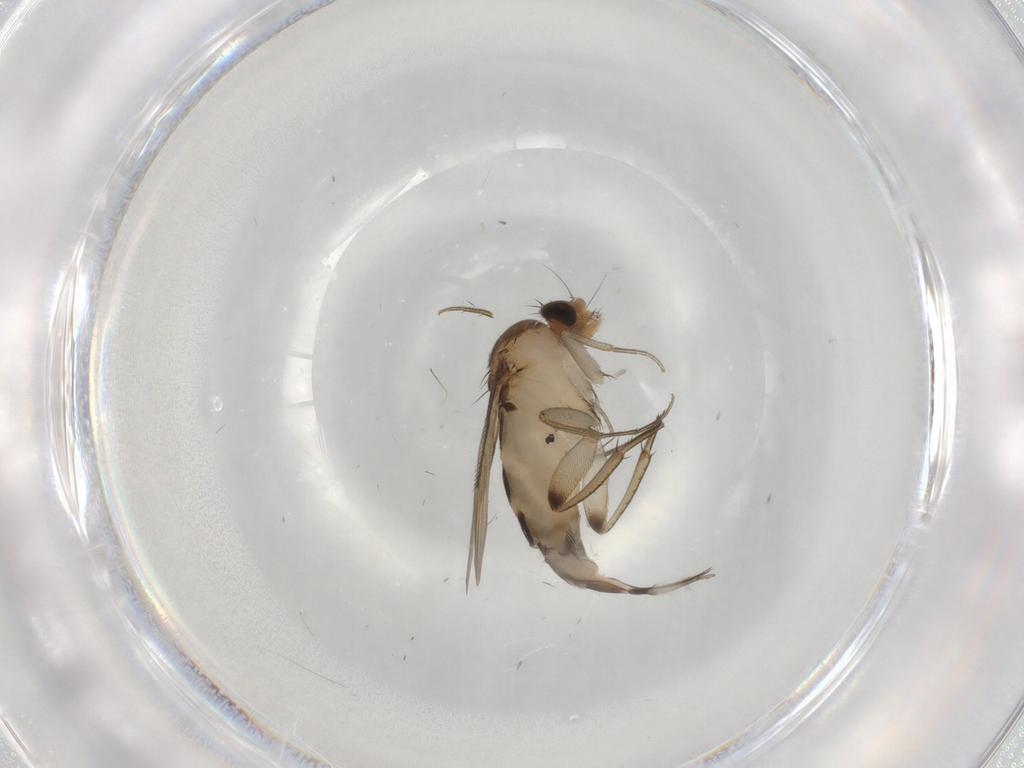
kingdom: Animalia
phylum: Arthropoda
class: Insecta
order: Diptera
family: Phoridae
